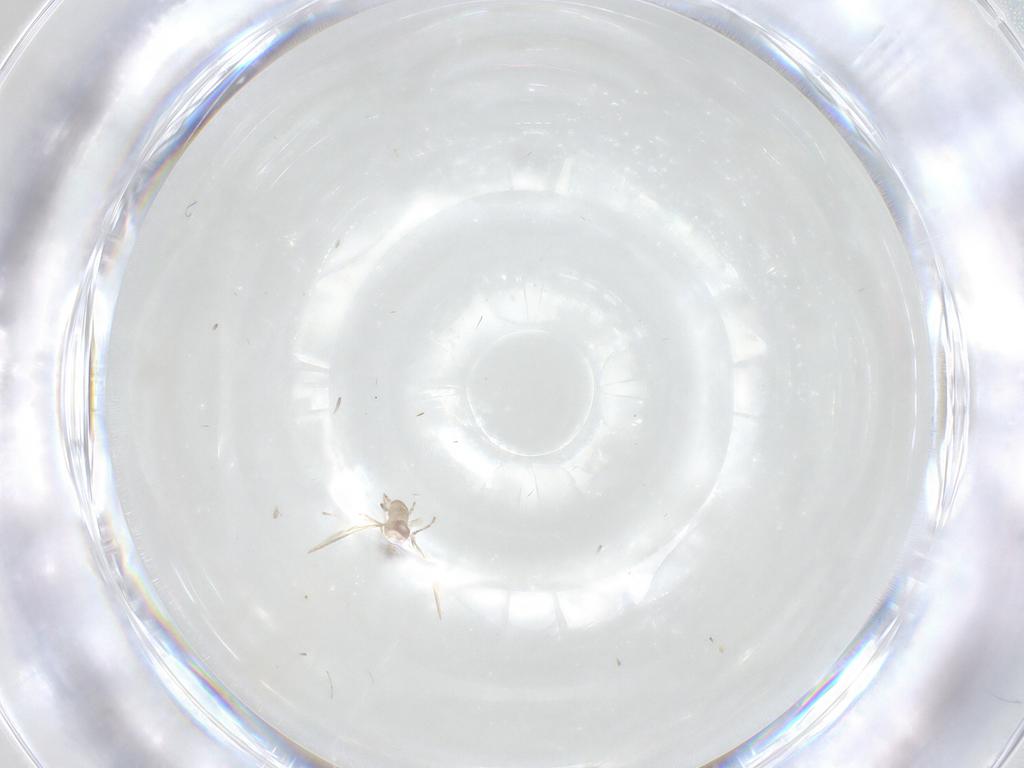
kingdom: Animalia
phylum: Arthropoda
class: Insecta
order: Diptera
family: Cecidomyiidae
